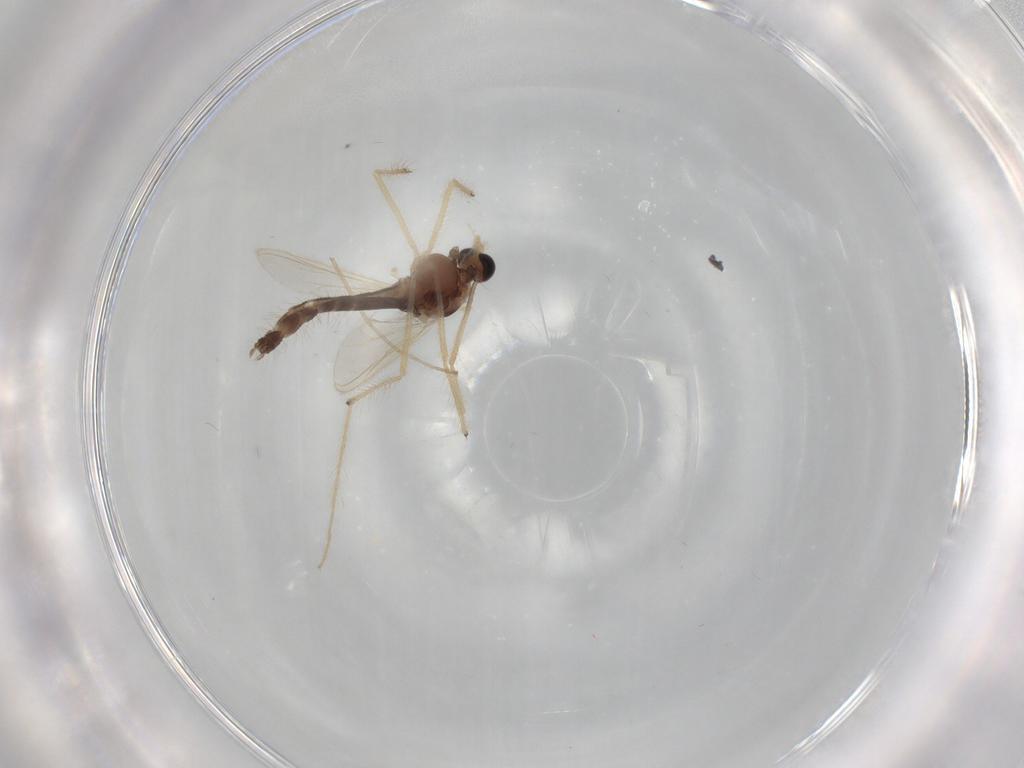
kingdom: Animalia
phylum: Arthropoda
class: Insecta
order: Diptera
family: Chironomidae
